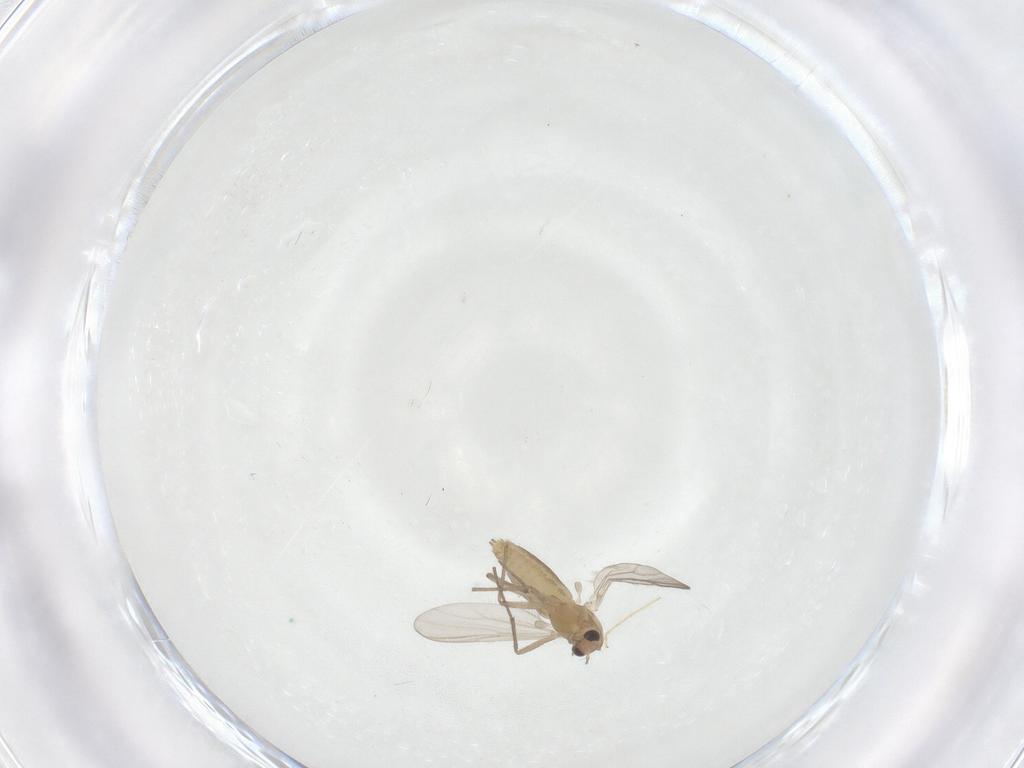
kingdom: Animalia
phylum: Arthropoda
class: Insecta
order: Diptera
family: Chironomidae
